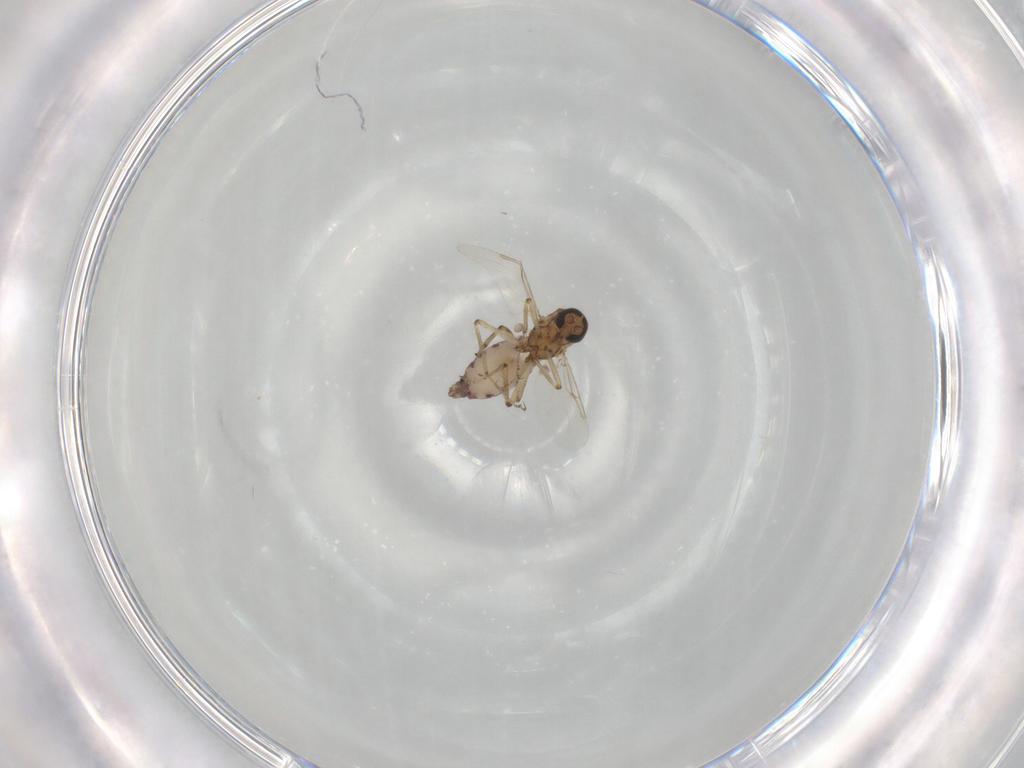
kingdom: Animalia
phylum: Arthropoda
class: Insecta
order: Diptera
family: Ceratopogonidae
